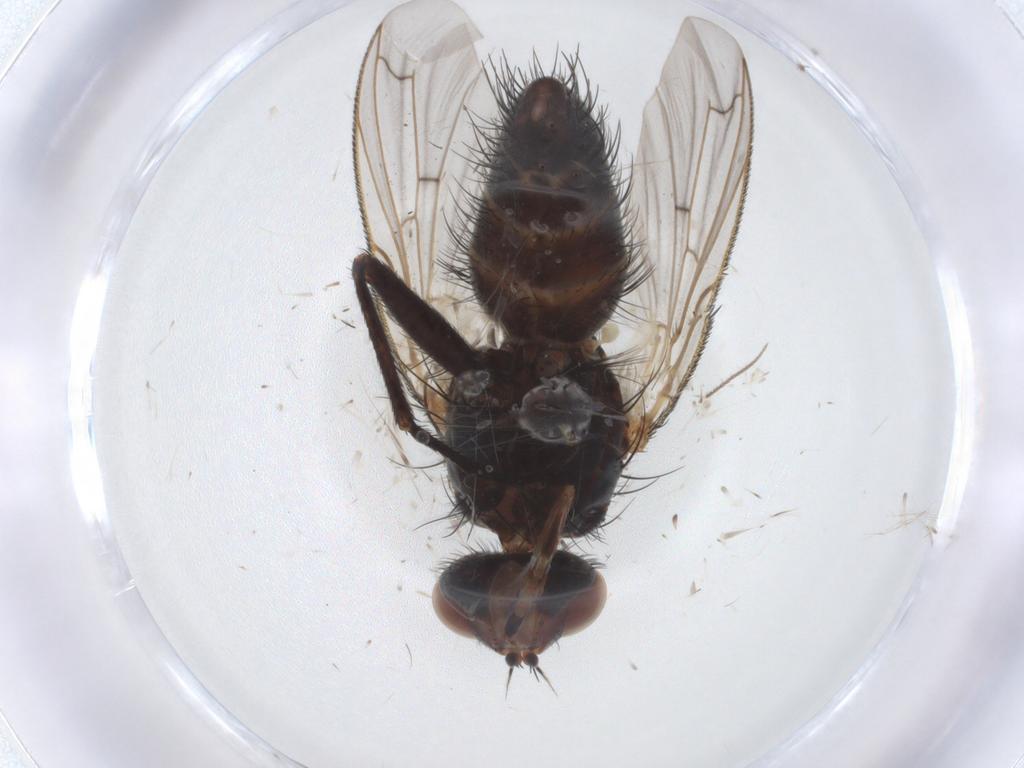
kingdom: Animalia
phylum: Arthropoda
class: Insecta
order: Diptera
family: Tachinidae
